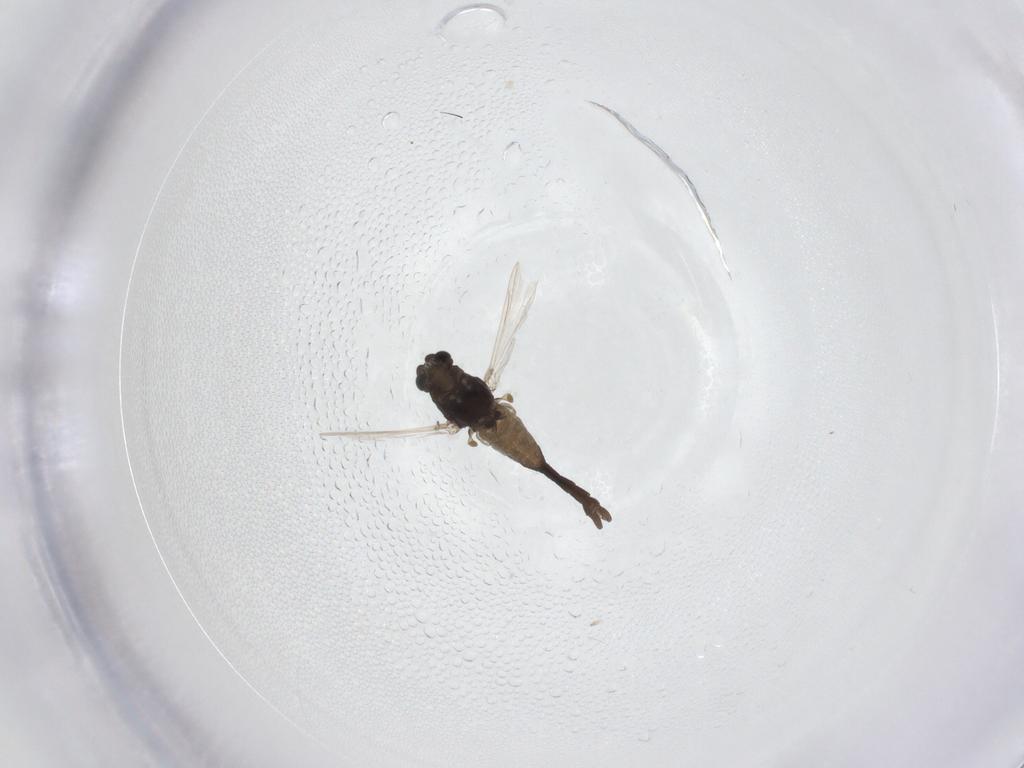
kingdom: Animalia
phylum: Arthropoda
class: Insecta
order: Diptera
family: Chironomidae
